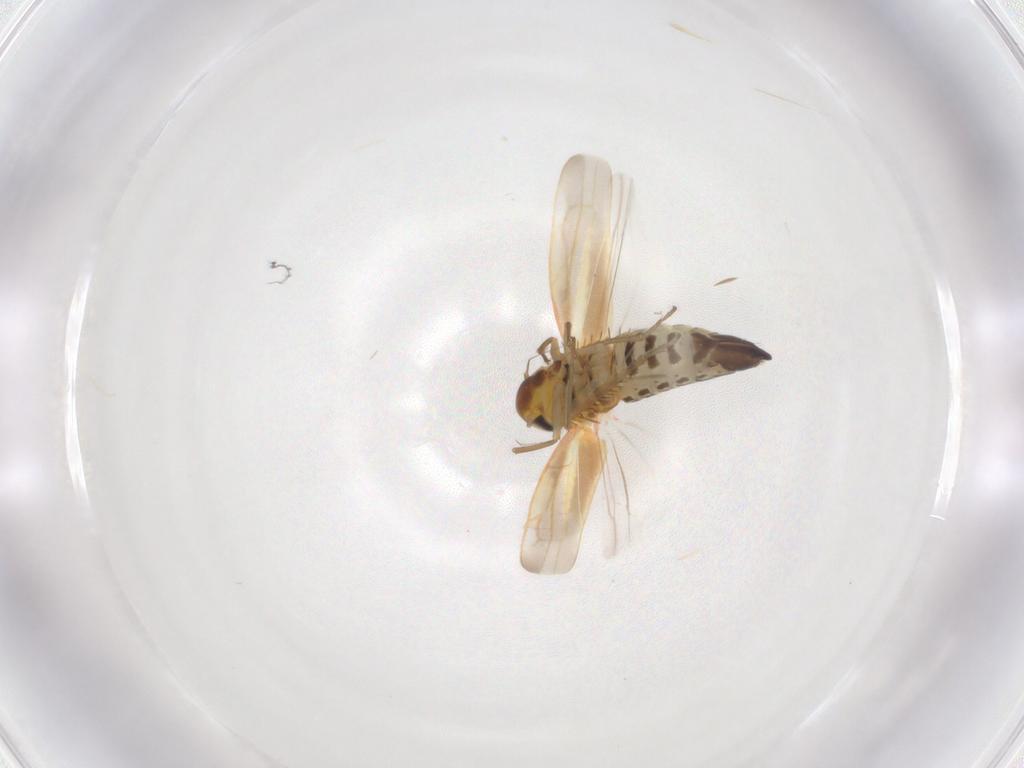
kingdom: Animalia
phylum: Arthropoda
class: Insecta
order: Hemiptera
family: Cicadellidae
